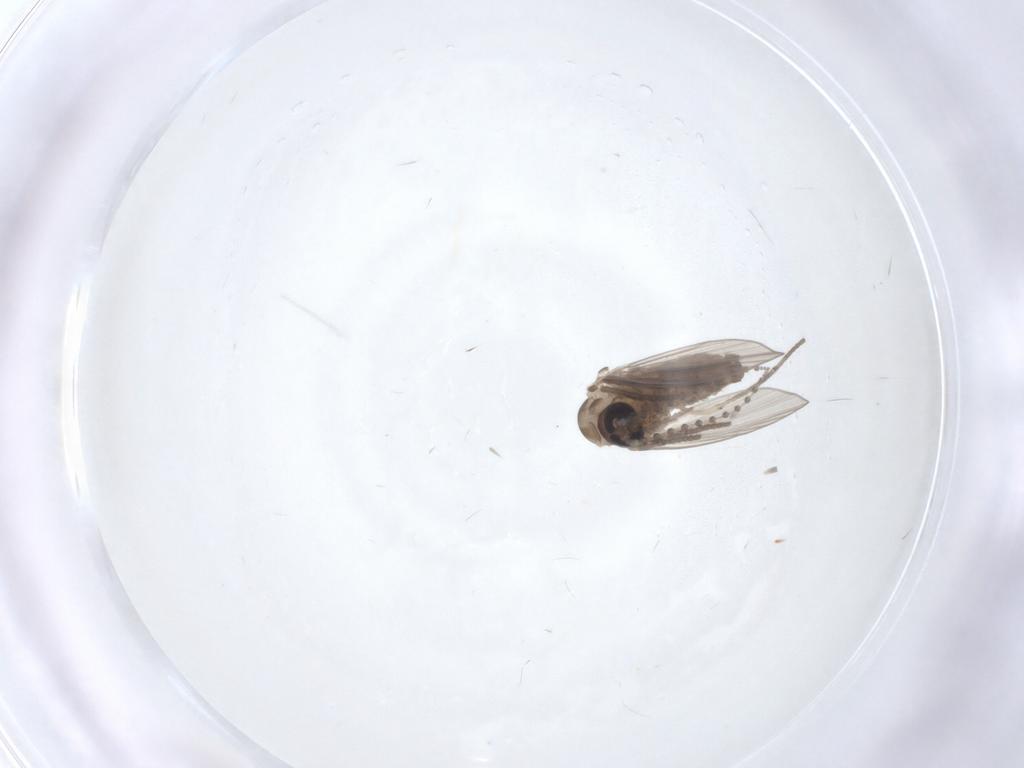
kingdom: Animalia
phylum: Arthropoda
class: Insecta
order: Diptera
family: Psychodidae
